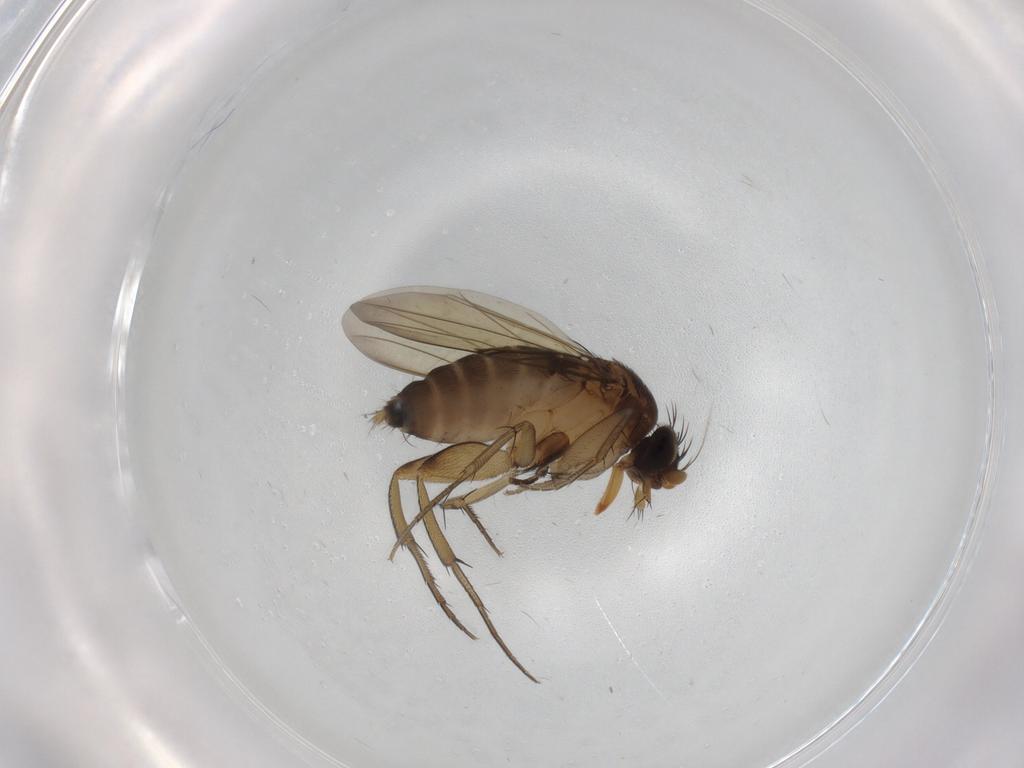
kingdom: Animalia
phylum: Arthropoda
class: Insecta
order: Diptera
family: Phoridae
